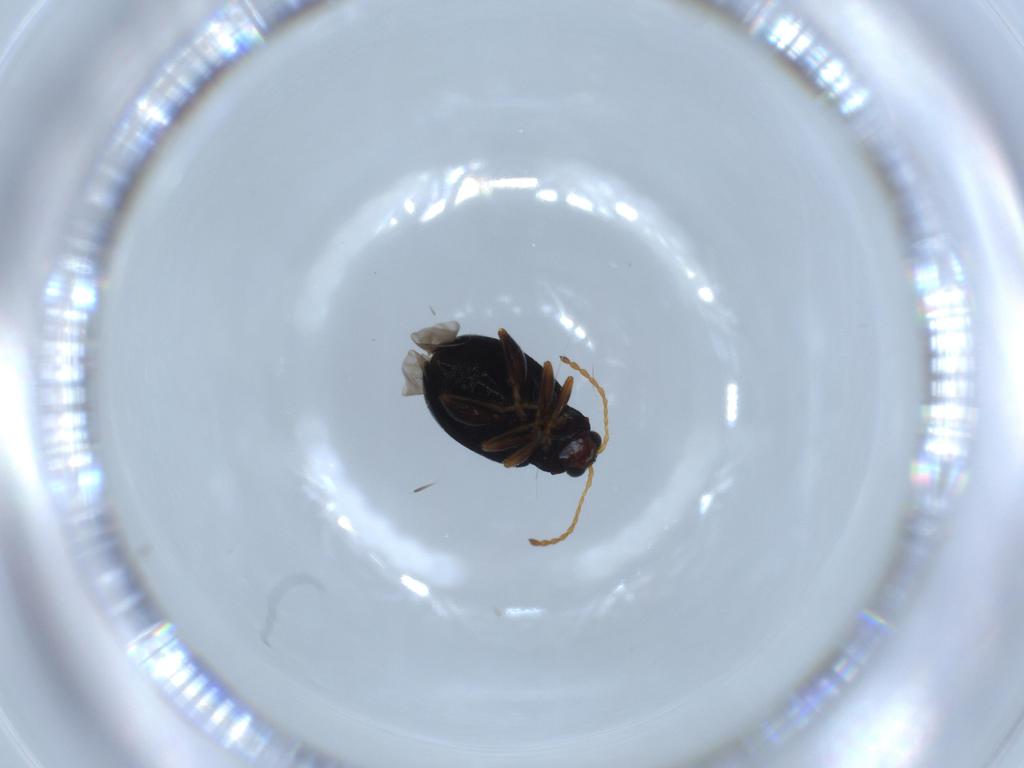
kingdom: Animalia
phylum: Arthropoda
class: Insecta
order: Coleoptera
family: Chrysomelidae
